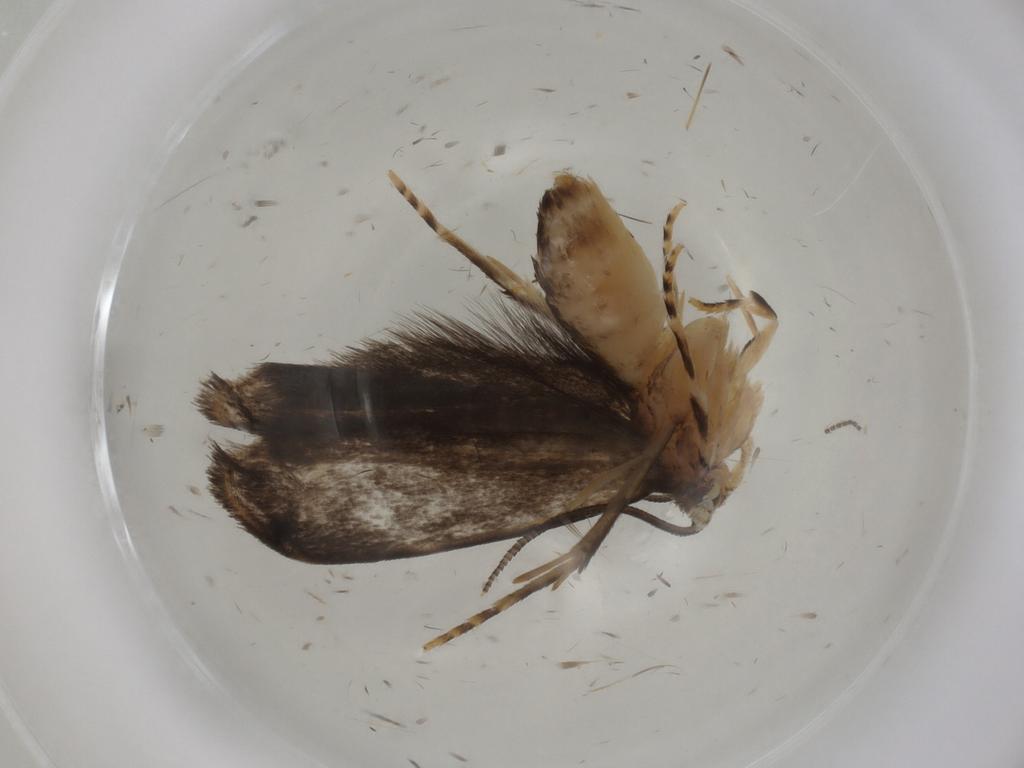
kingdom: Animalia
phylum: Arthropoda
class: Insecta
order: Lepidoptera
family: Dryadaulidae
